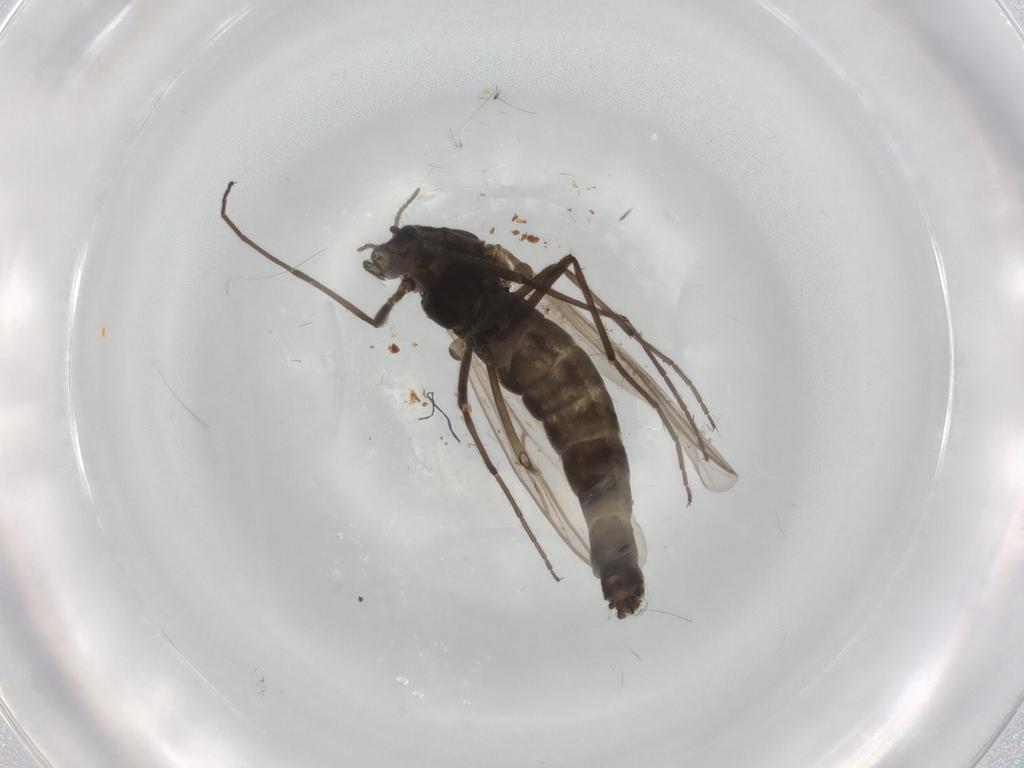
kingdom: Animalia
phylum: Arthropoda
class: Insecta
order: Diptera
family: Chironomidae
